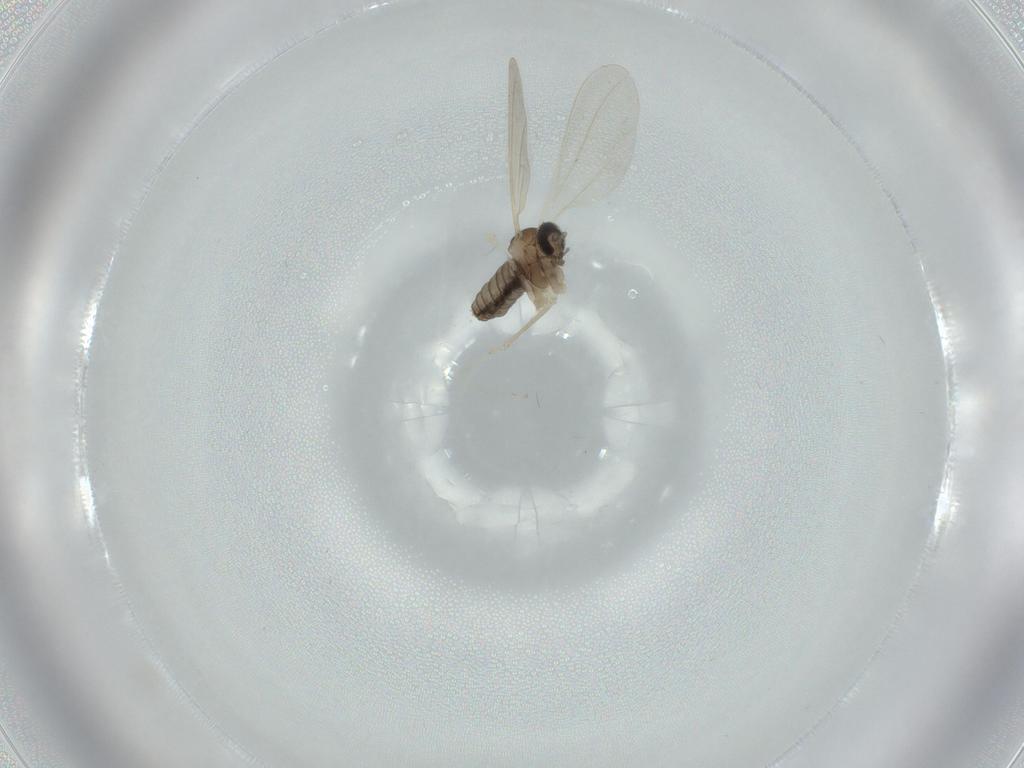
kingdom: Animalia
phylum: Arthropoda
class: Insecta
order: Diptera
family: Cecidomyiidae
